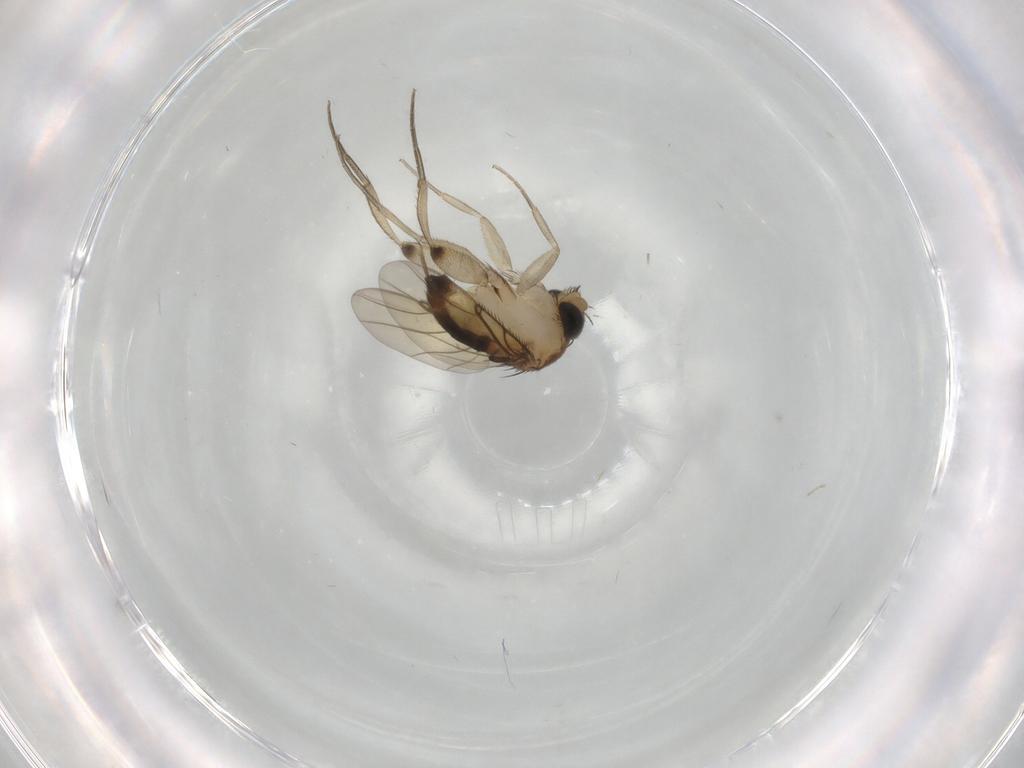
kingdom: Animalia
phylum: Arthropoda
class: Insecta
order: Diptera
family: Phoridae
